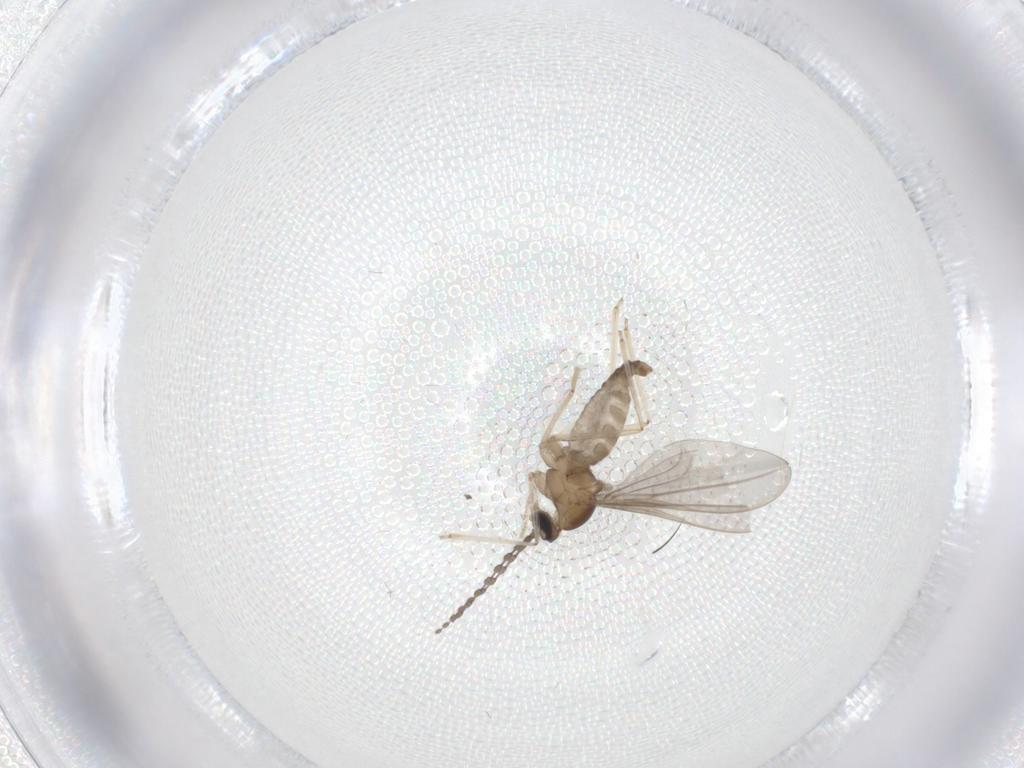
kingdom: Animalia
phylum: Arthropoda
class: Insecta
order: Diptera
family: Cecidomyiidae
